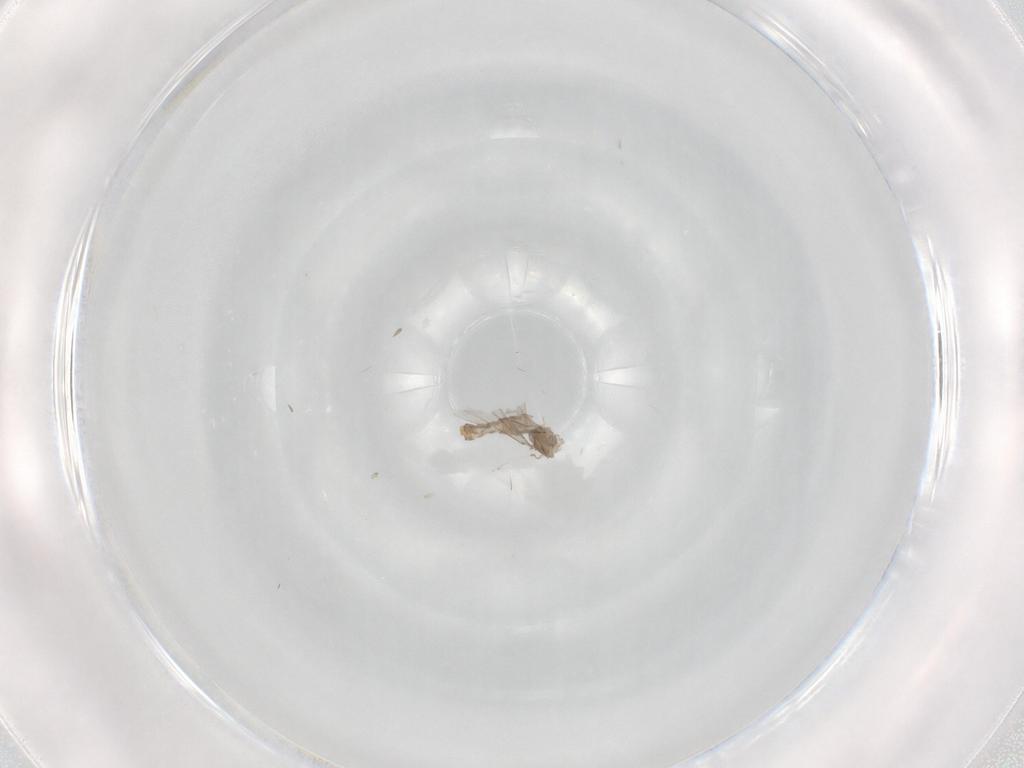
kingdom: Animalia
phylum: Arthropoda
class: Insecta
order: Diptera
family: Cecidomyiidae
